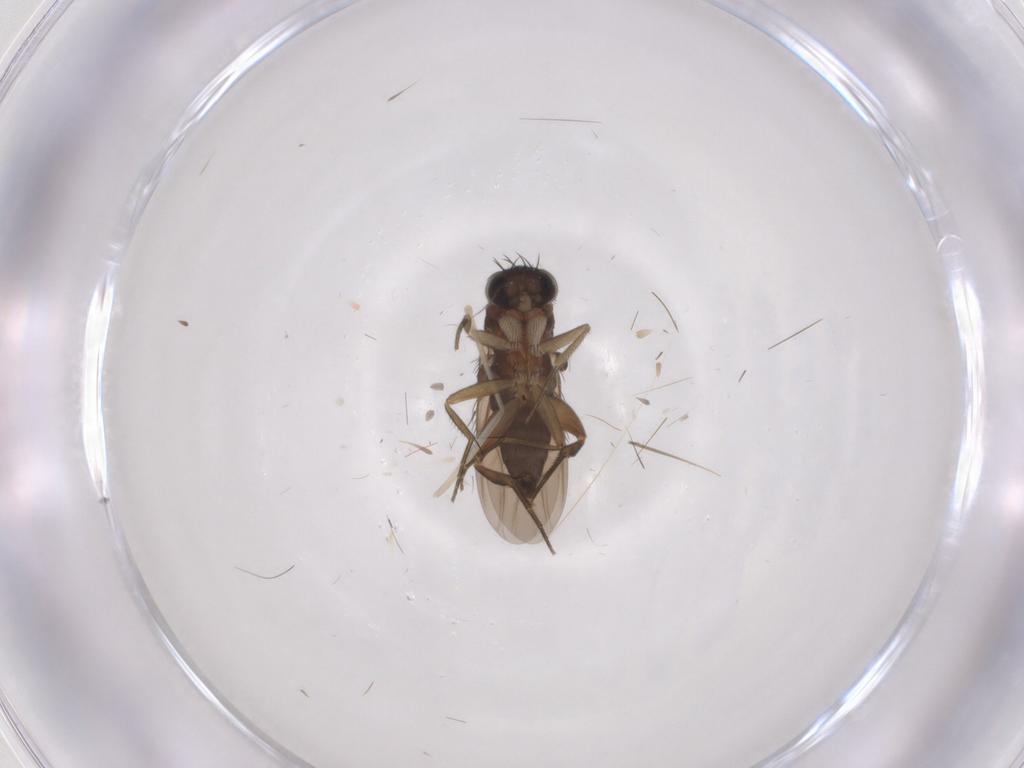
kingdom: Animalia
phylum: Arthropoda
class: Insecta
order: Diptera
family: Phoridae
